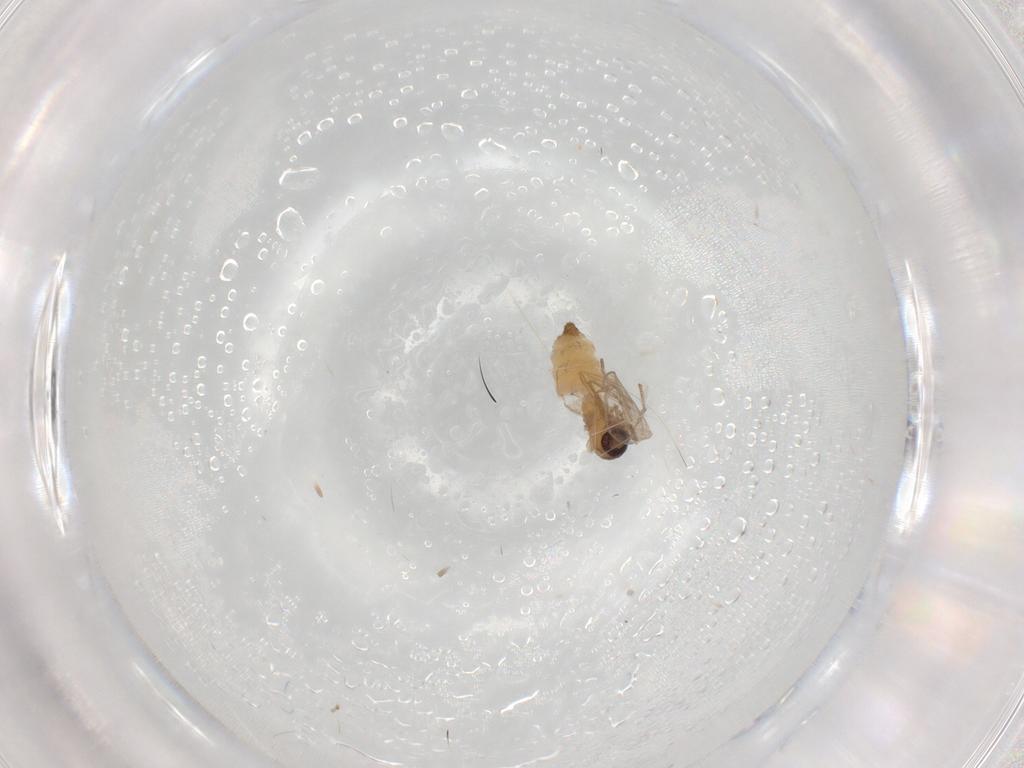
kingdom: Animalia
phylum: Arthropoda
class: Insecta
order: Diptera
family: Psychodidae
